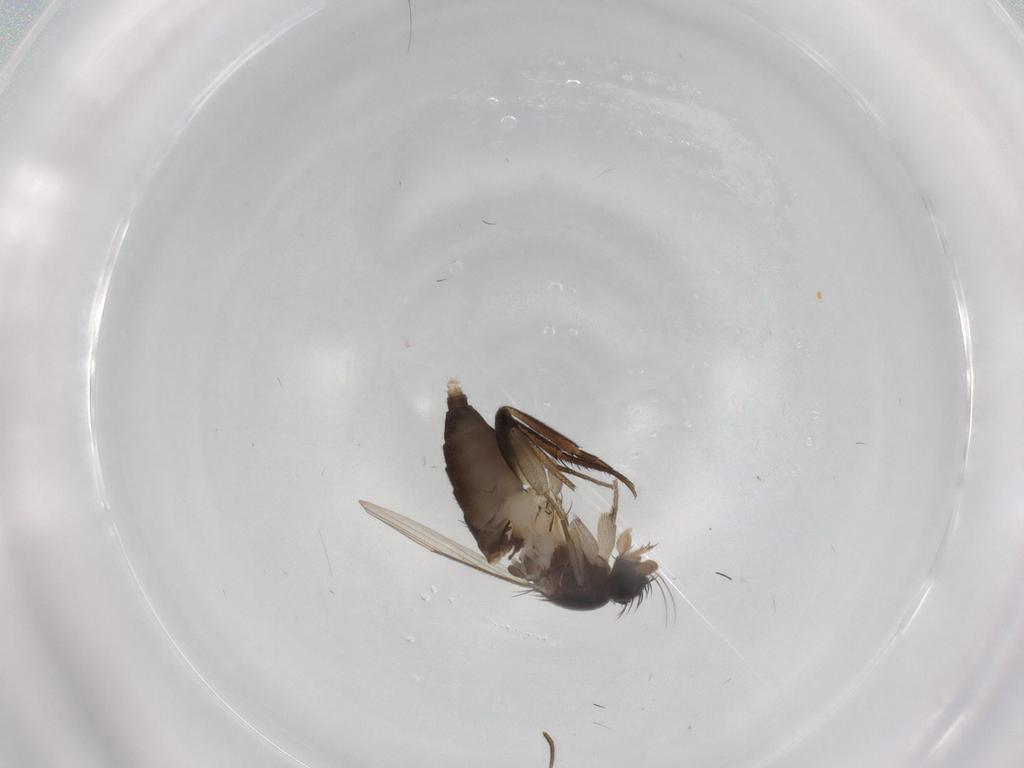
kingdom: Animalia
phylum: Arthropoda
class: Insecta
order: Diptera
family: Phoridae
